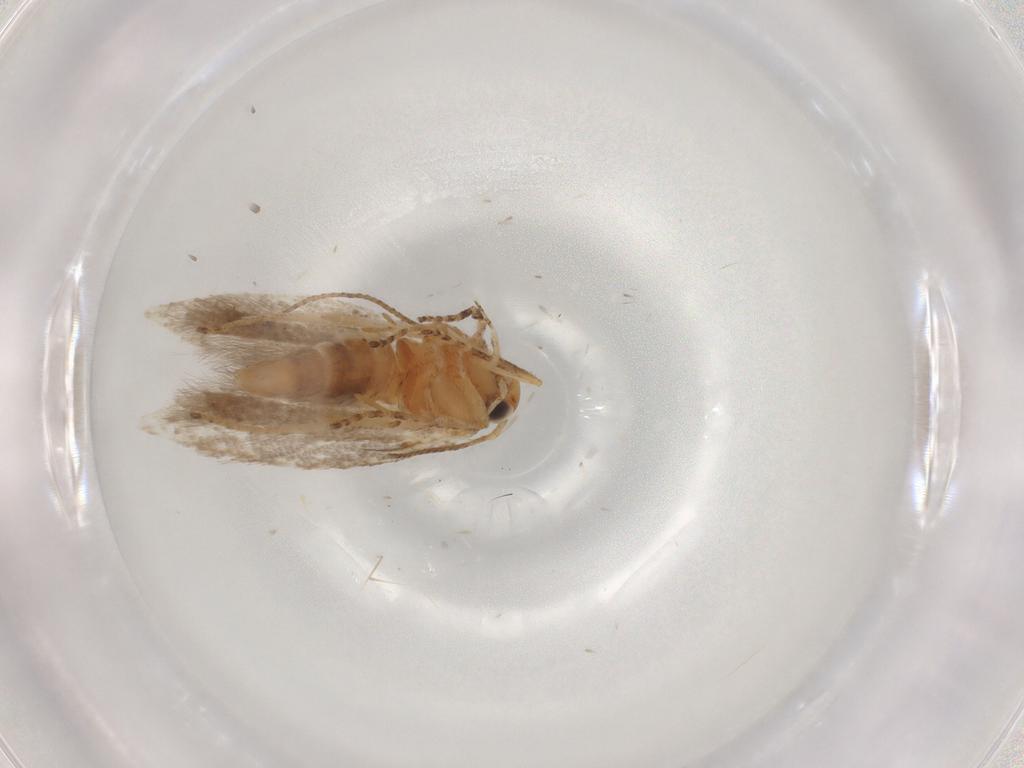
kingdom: Animalia
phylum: Arthropoda
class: Insecta
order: Lepidoptera
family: Gelechiidae
